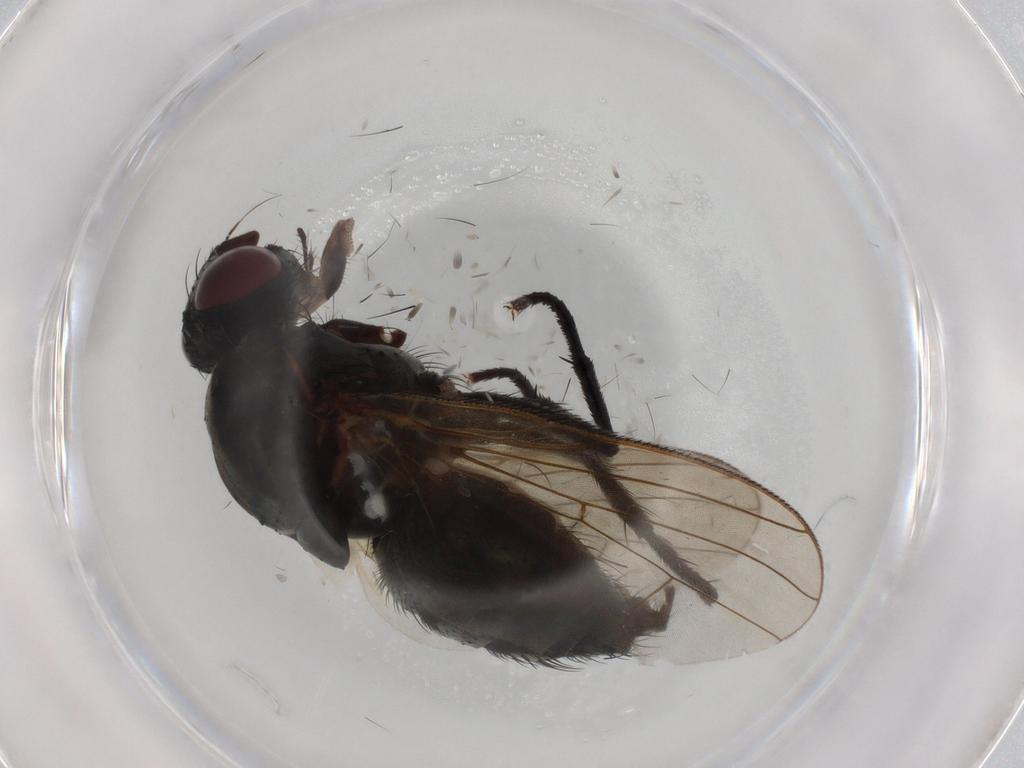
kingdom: Animalia
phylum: Arthropoda
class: Insecta
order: Diptera
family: Anthomyiidae
